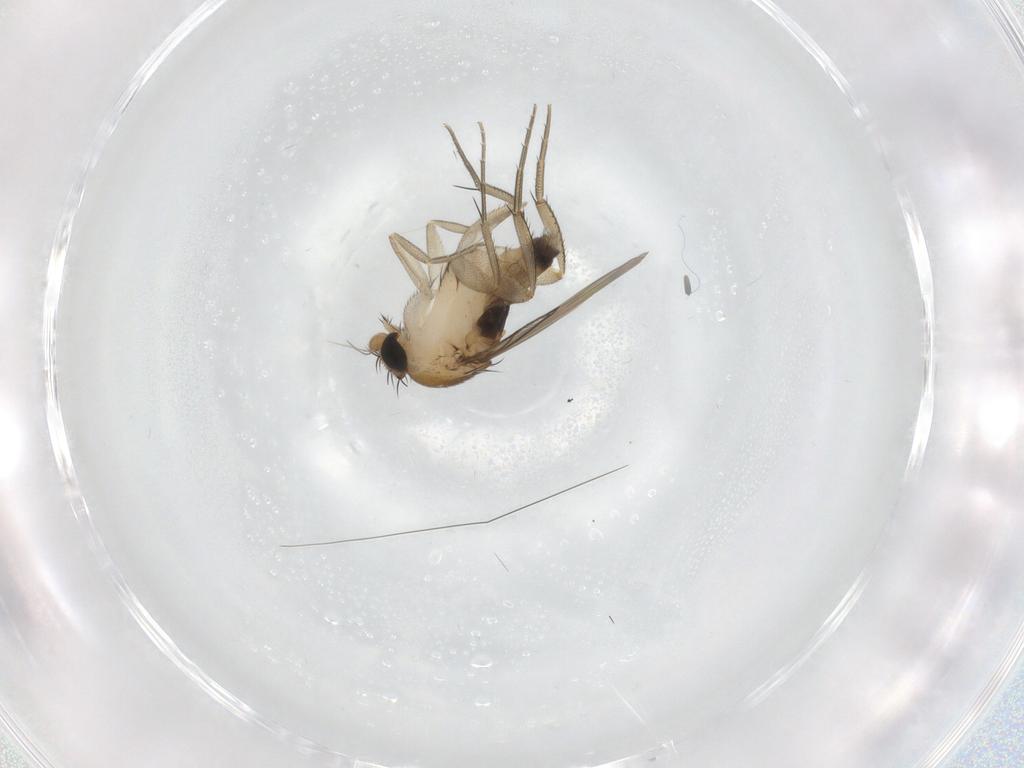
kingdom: Animalia
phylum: Arthropoda
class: Insecta
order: Diptera
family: Phoridae
